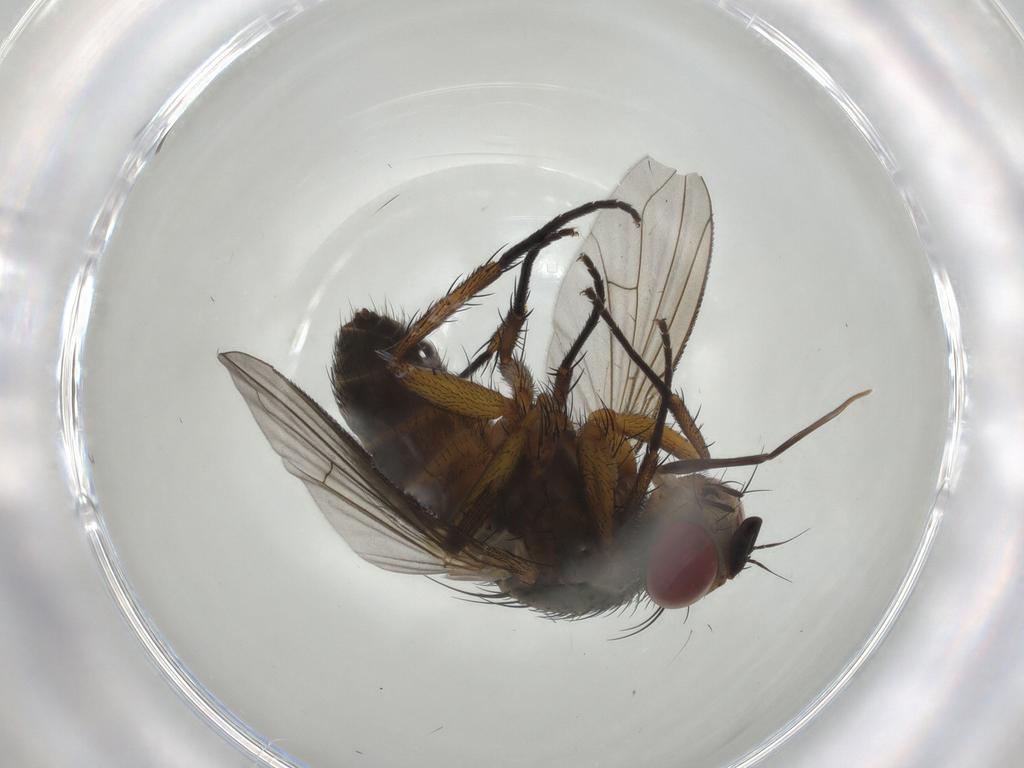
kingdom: Animalia
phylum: Arthropoda
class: Insecta
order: Diptera
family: Tachinidae
